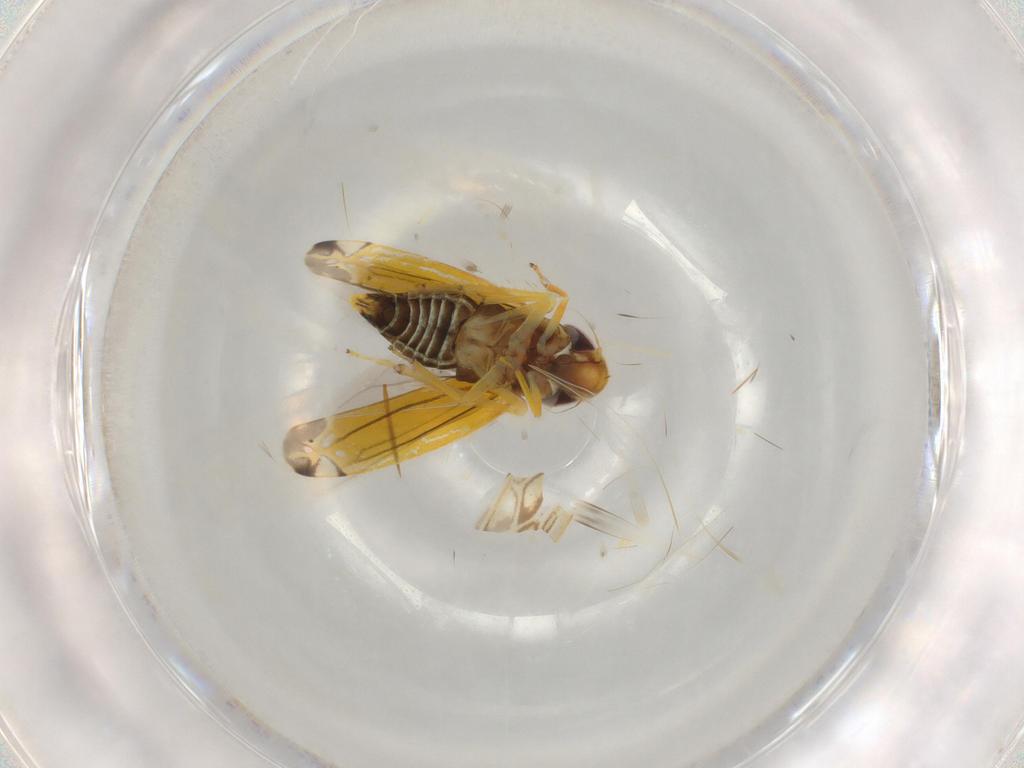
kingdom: Animalia
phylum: Arthropoda
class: Insecta
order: Hemiptera
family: Cicadellidae
